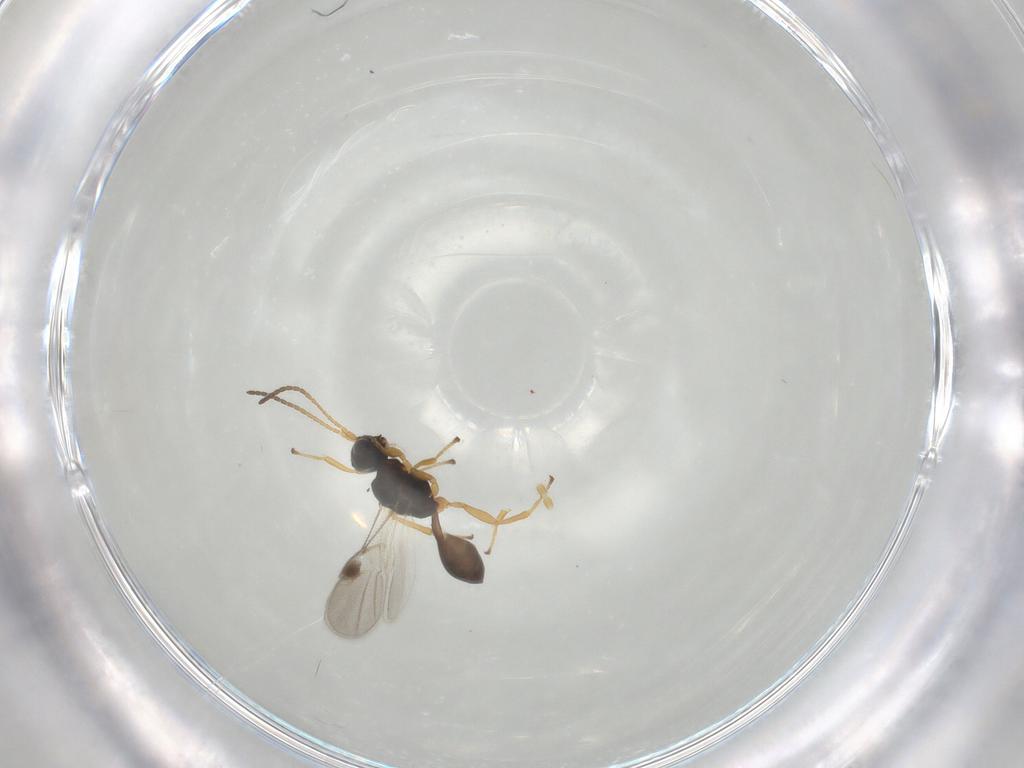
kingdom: Animalia
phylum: Arthropoda
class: Insecta
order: Hymenoptera
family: Braconidae
